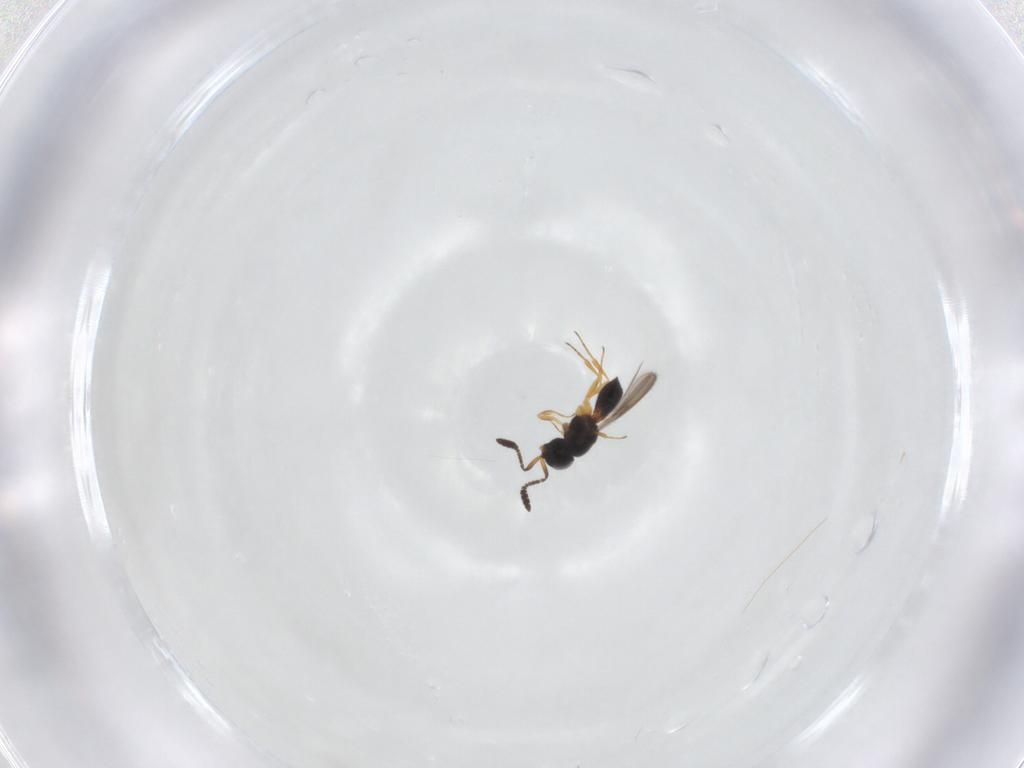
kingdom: Animalia
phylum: Arthropoda
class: Insecta
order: Hymenoptera
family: Scelionidae
